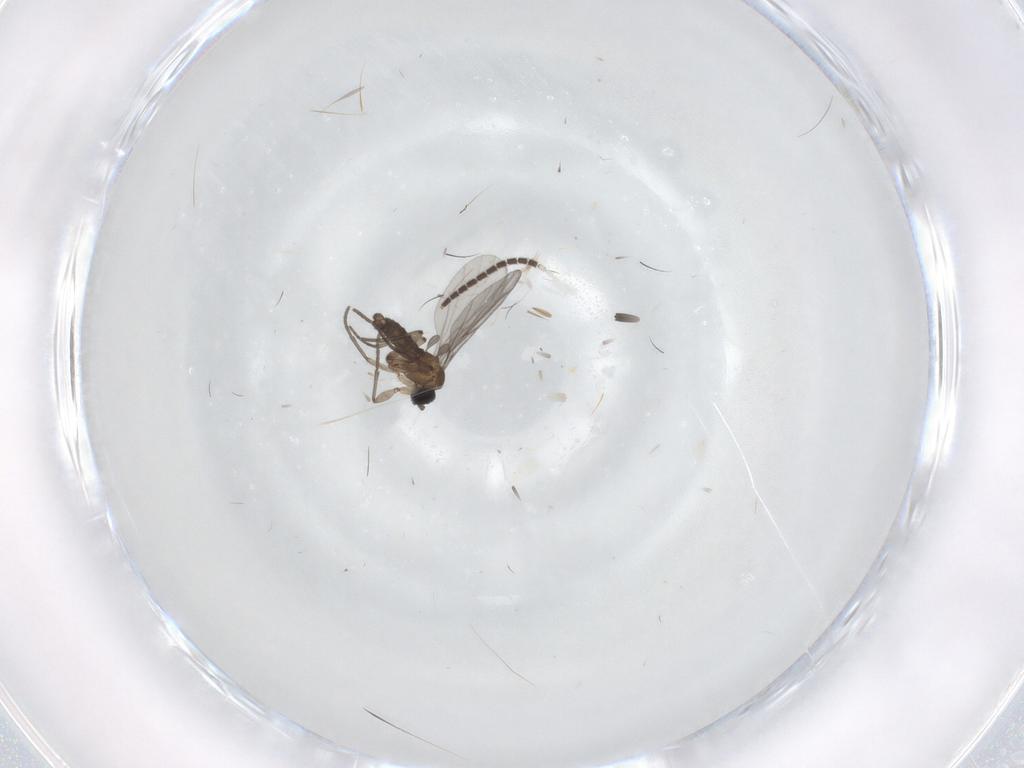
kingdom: Animalia
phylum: Arthropoda
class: Insecta
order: Diptera
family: Sciaridae
